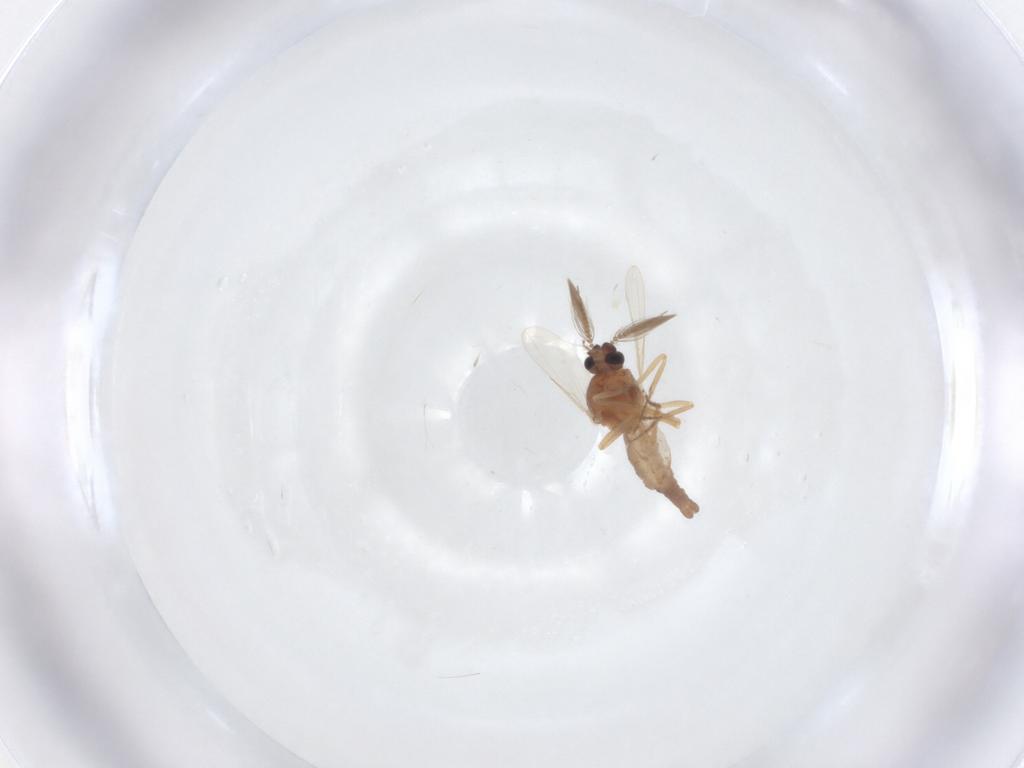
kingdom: Animalia
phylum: Arthropoda
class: Insecta
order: Diptera
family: Ceratopogonidae
